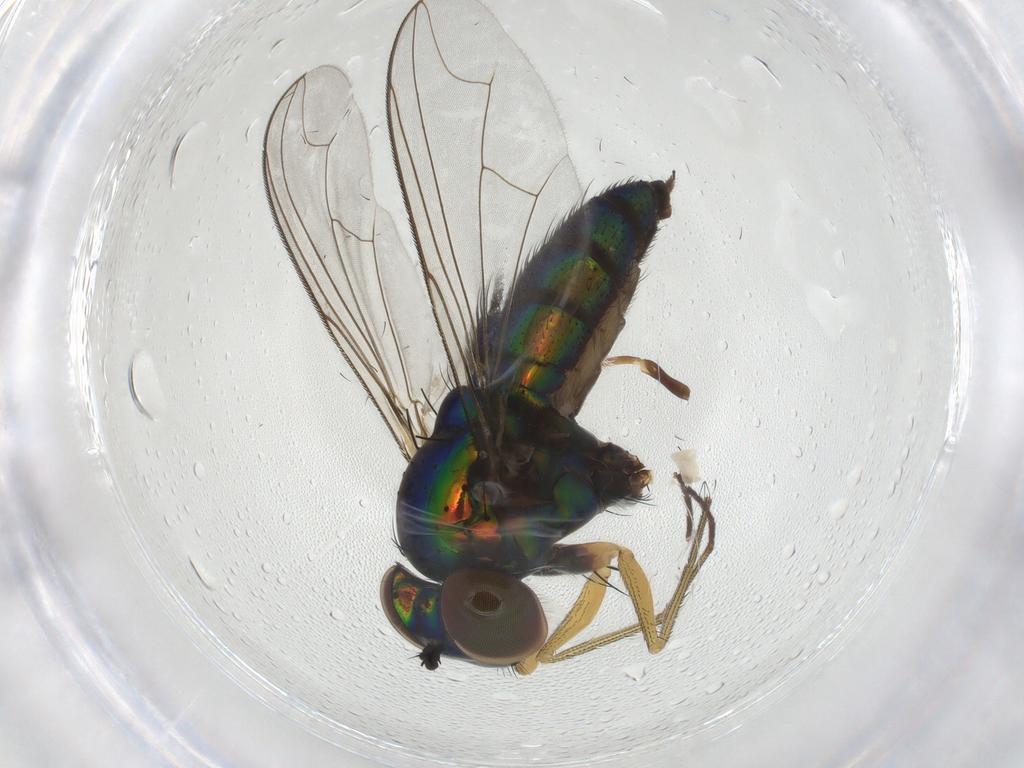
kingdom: Animalia
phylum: Arthropoda
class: Insecta
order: Diptera
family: Dolichopodidae
